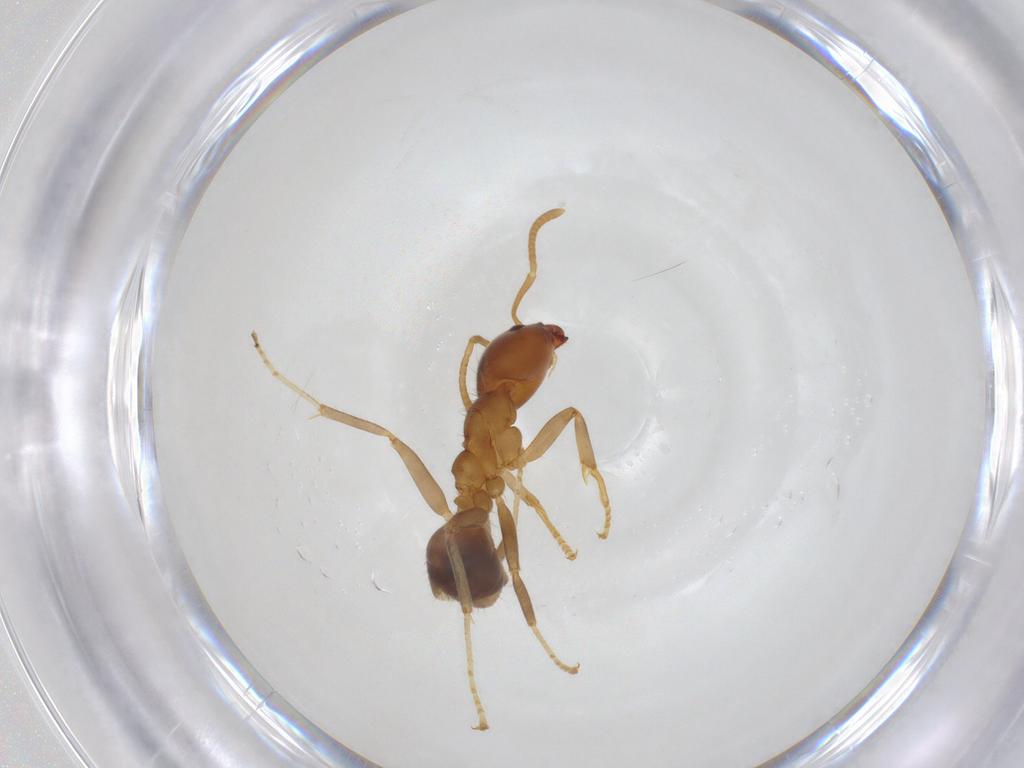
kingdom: Animalia
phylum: Arthropoda
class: Insecta
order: Hymenoptera
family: Formicidae
